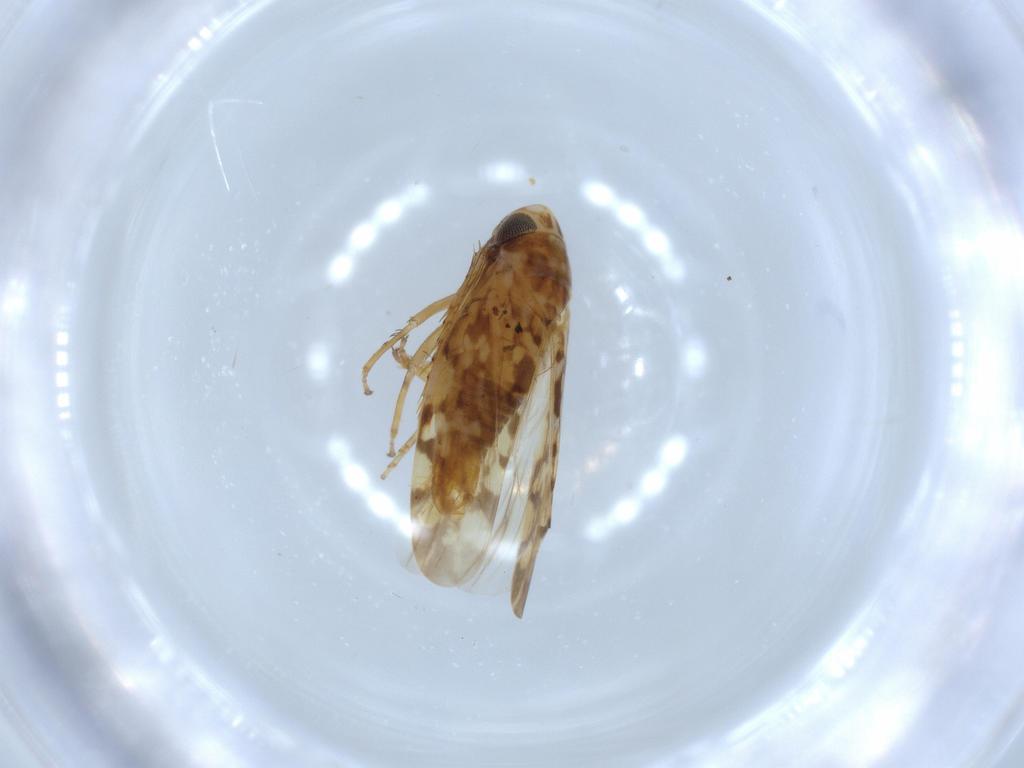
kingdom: Animalia
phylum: Arthropoda
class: Insecta
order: Hemiptera
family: Cicadellidae
